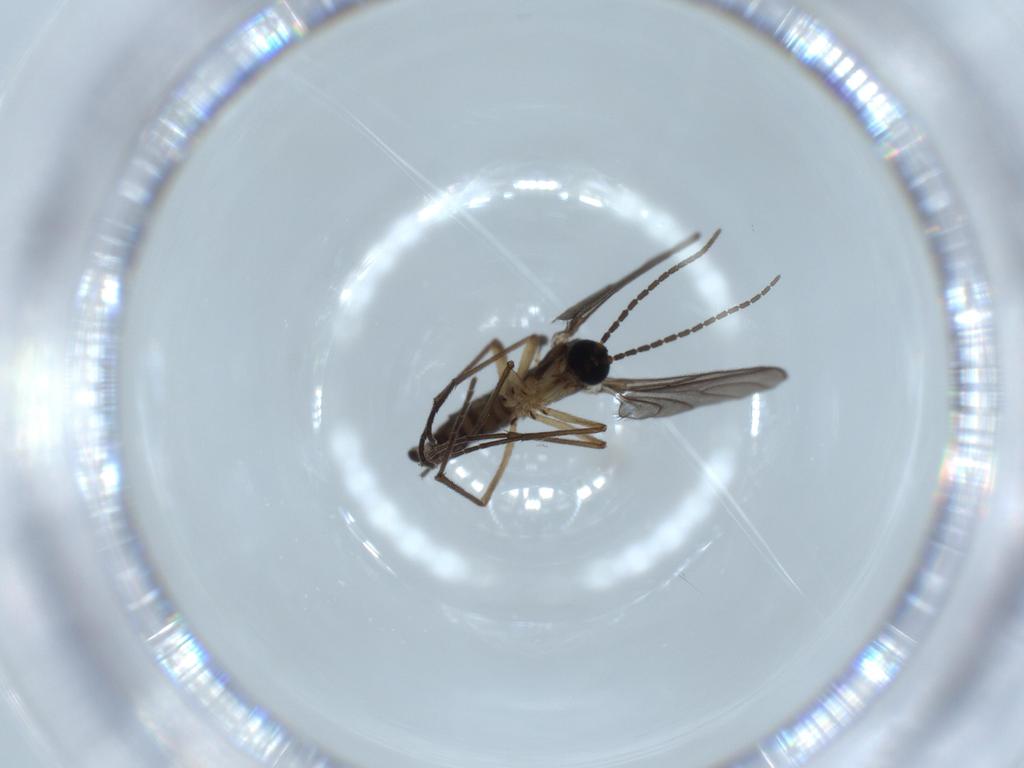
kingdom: Animalia
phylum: Arthropoda
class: Insecta
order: Diptera
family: Sciaridae
